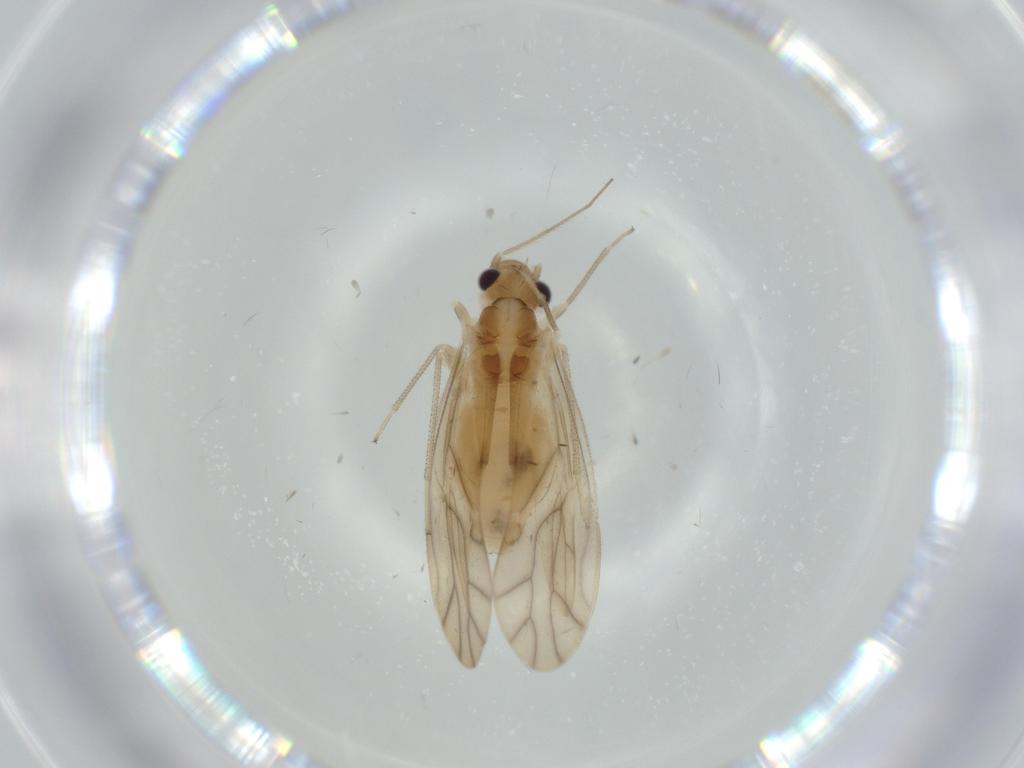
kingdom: Animalia
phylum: Arthropoda
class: Insecta
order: Psocodea
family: Caeciliusidae
